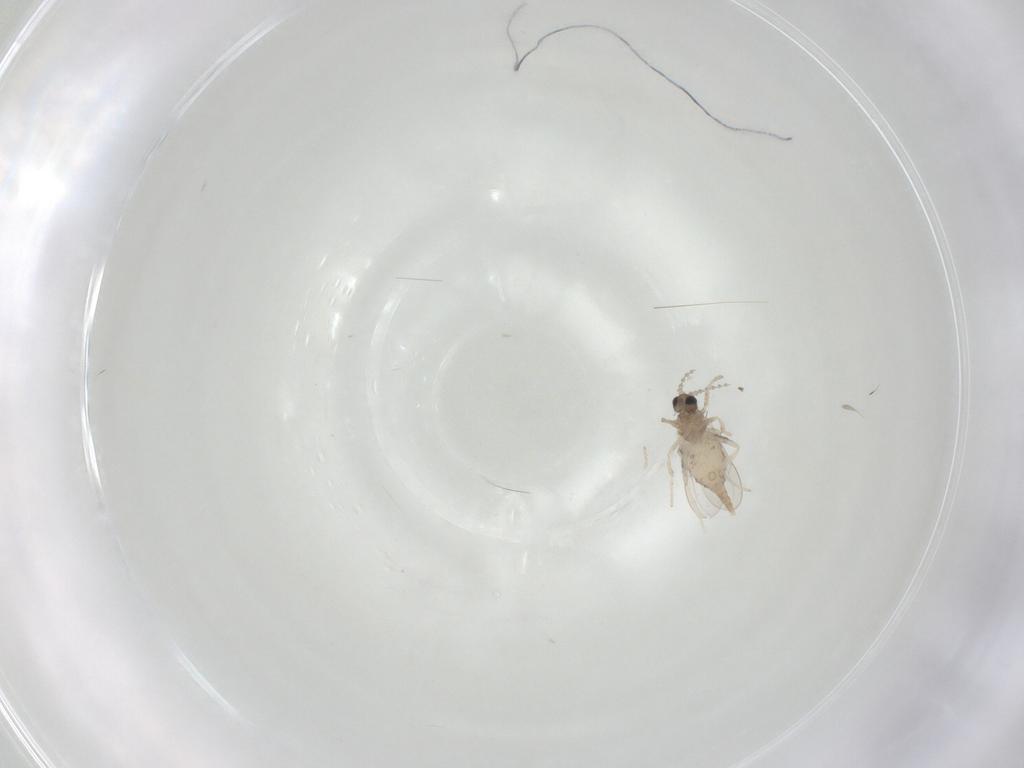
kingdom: Animalia
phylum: Arthropoda
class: Insecta
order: Diptera
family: Cecidomyiidae
